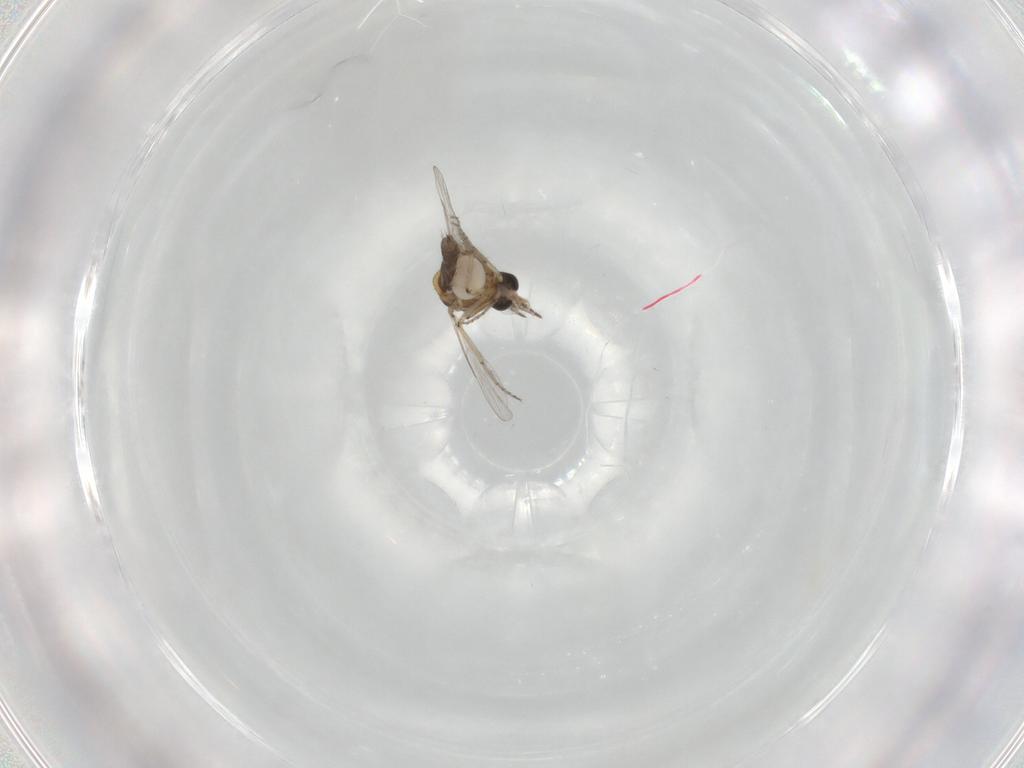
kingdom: Animalia
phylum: Arthropoda
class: Insecta
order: Diptera
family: Ceratopogonidae
